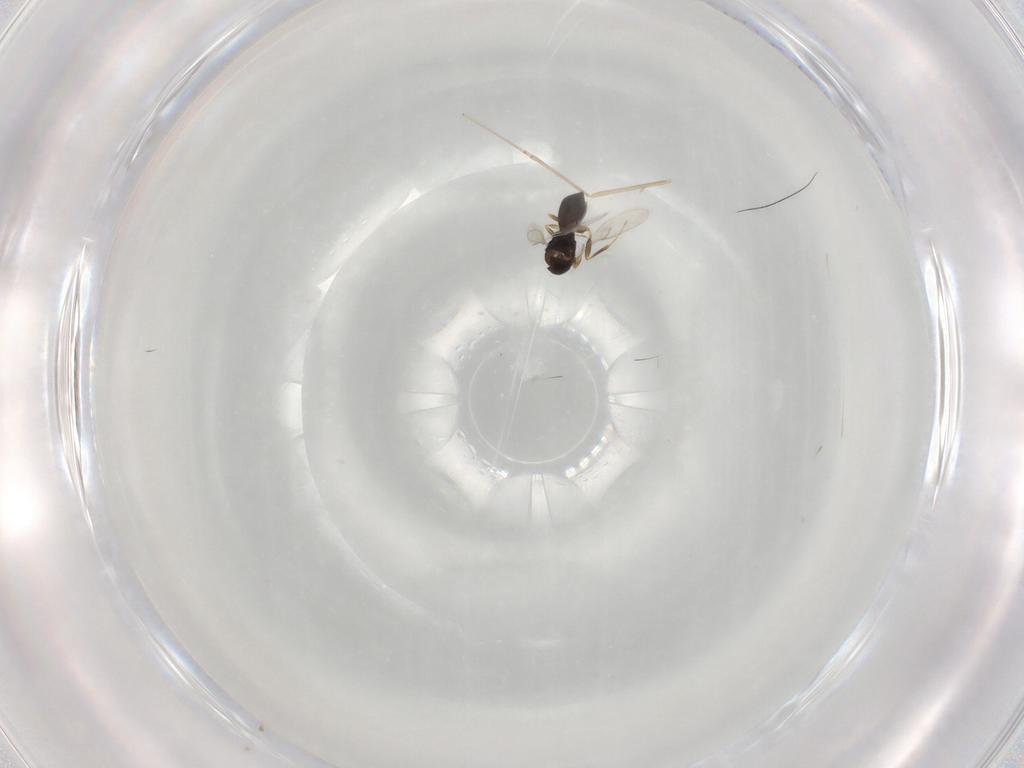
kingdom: Animalia
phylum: Arthropoda
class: Insecta
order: Hymenoptera
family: Scelionidae
